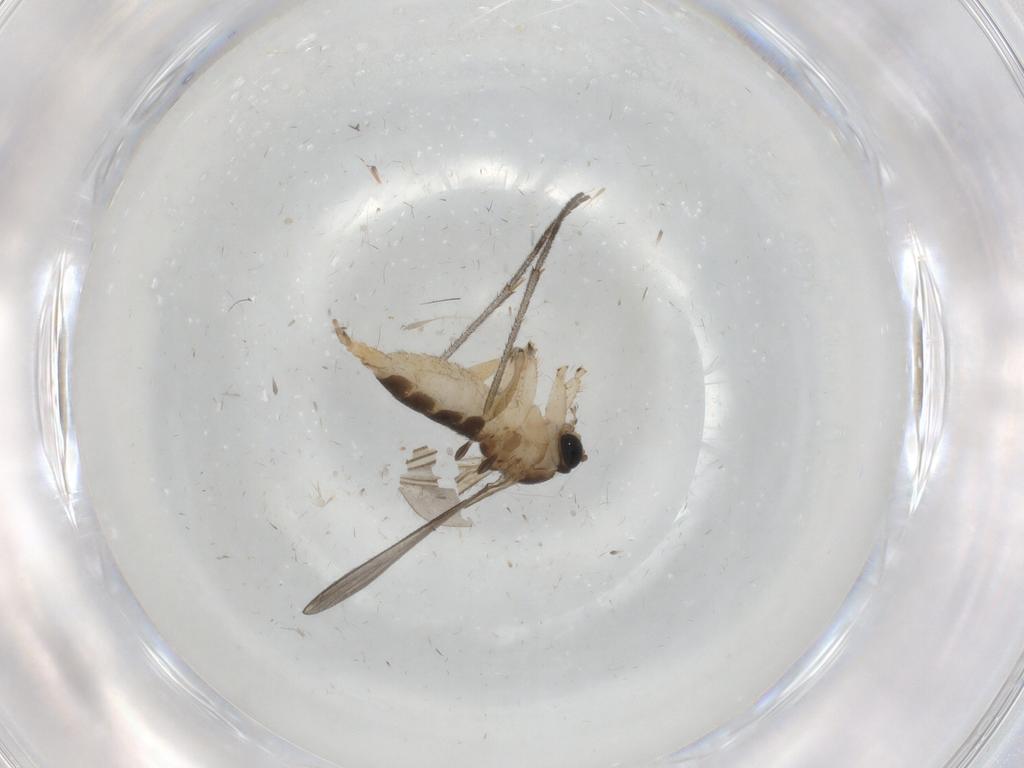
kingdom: Animalia
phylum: Arthropoda
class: Insecta
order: Diptera
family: Sciaridae
